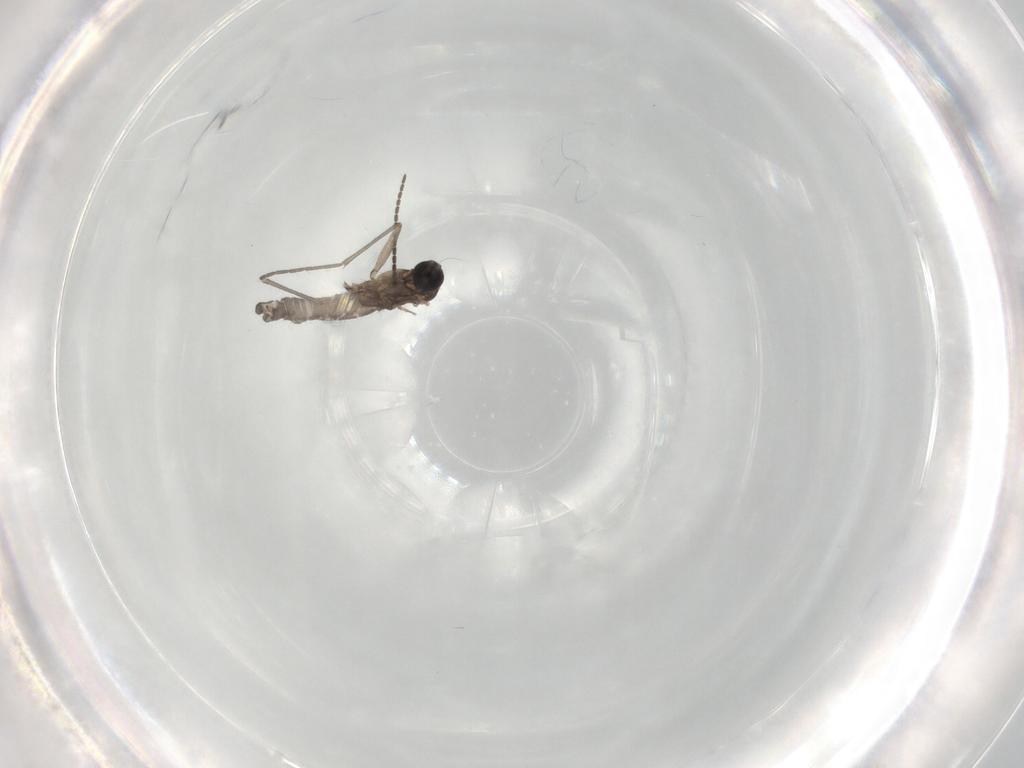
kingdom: Animalia
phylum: Arthropoda
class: Insecta
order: Diptera
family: Sciaridae
